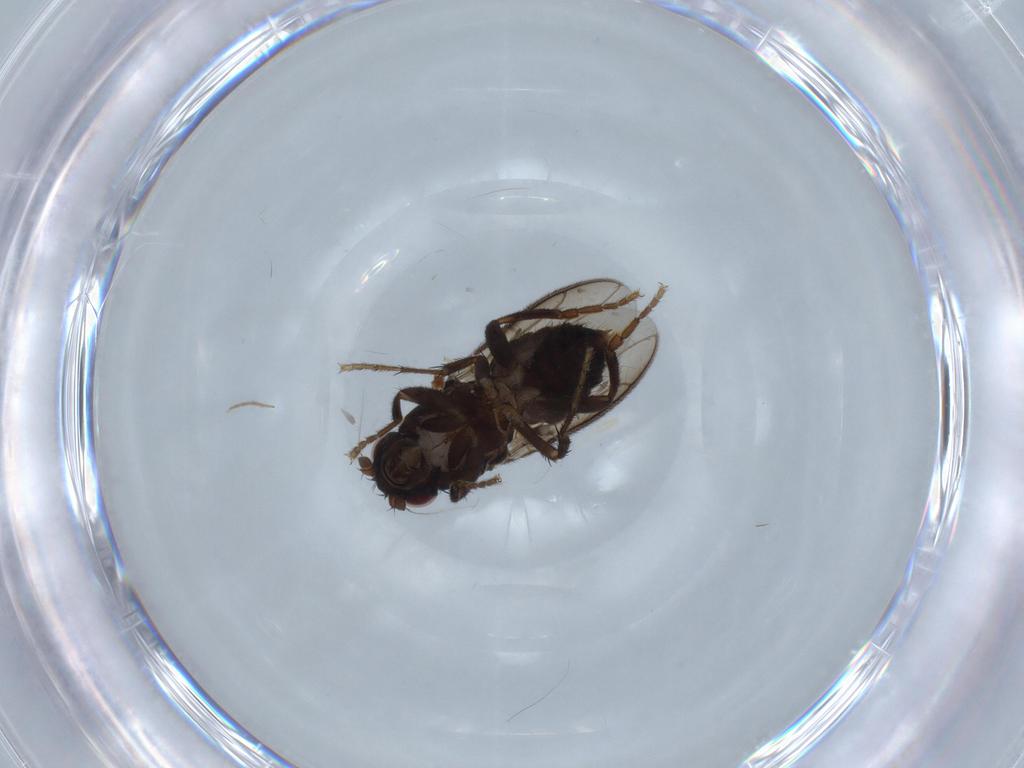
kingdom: Animalia
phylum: Arthropoda
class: Insecta
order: Diptera
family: Sphaeroceridae
